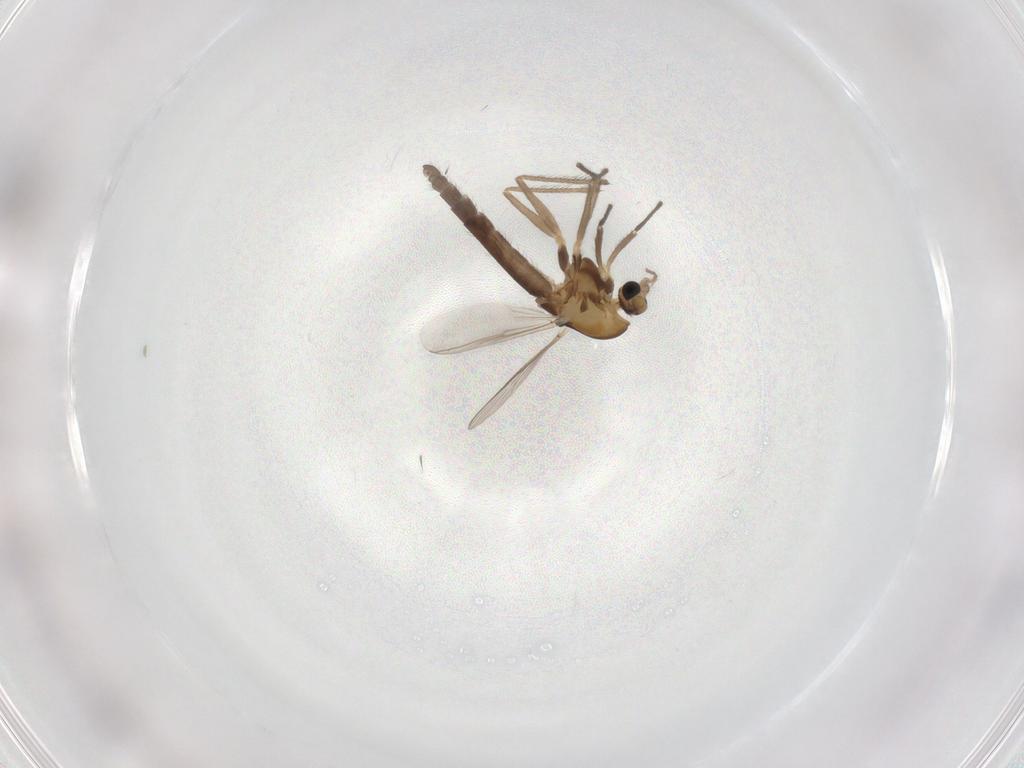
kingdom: Animalia
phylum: Arthropoda
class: Insecta
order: Diptera
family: Chironomidae
